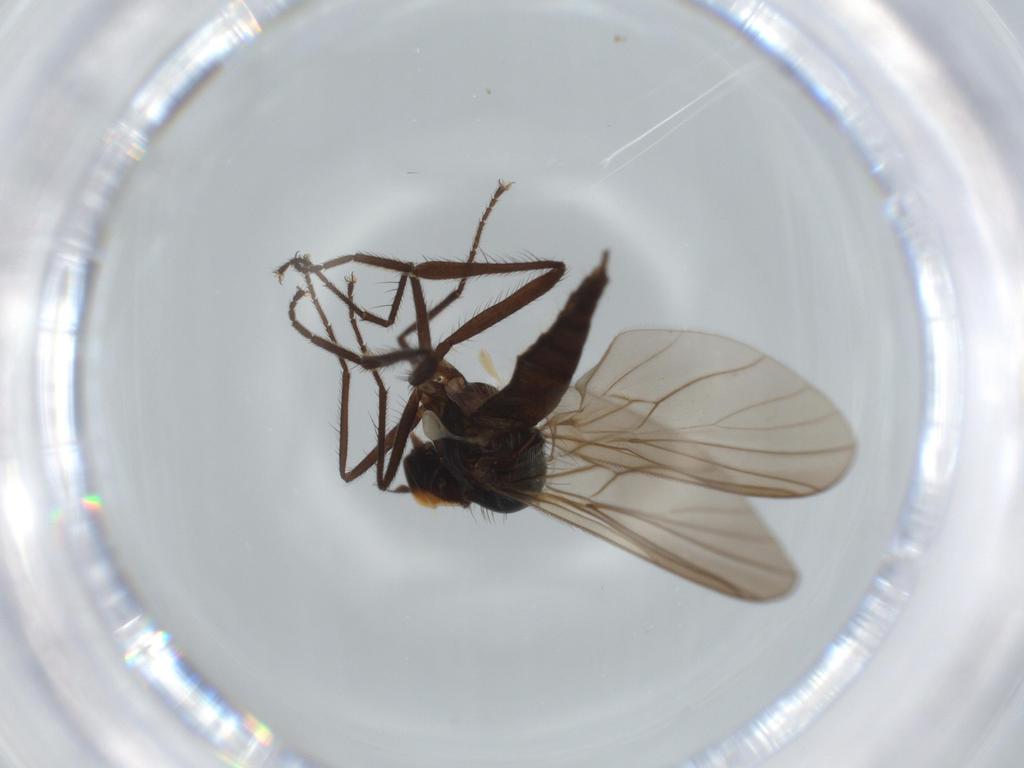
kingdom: Animalia
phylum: Arthropoda
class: Insecta
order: Diptera
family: Hybotidae
